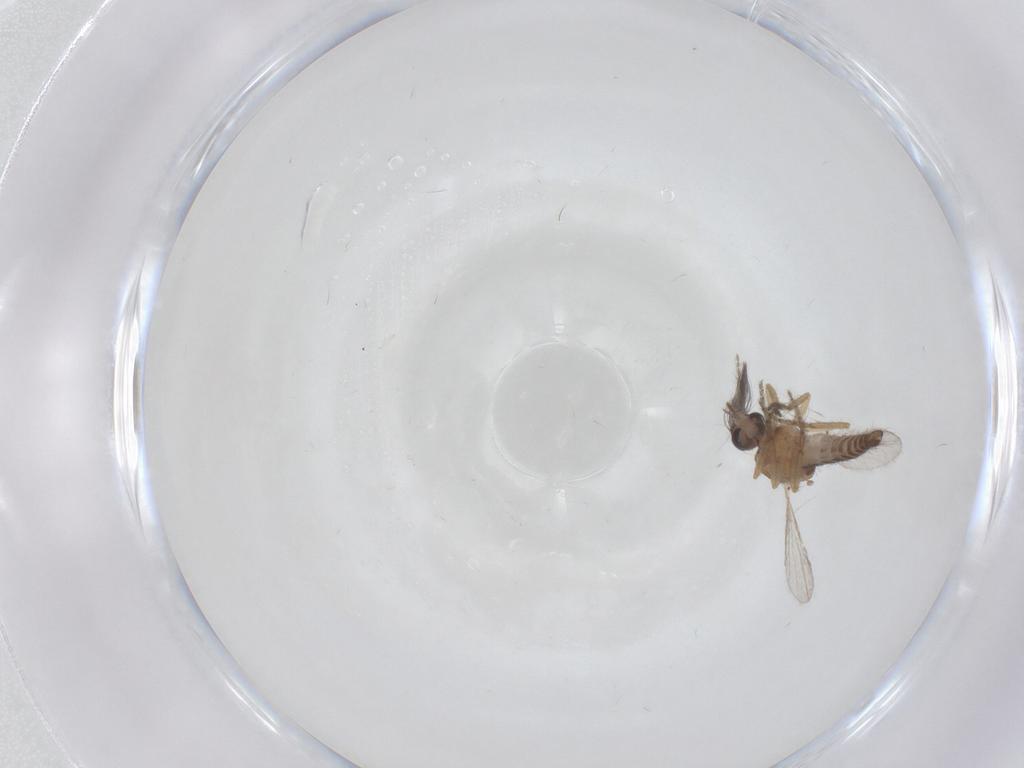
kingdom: Animalia
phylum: Arthropoda
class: Insecta
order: Diptera
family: Ceratopogonidae
